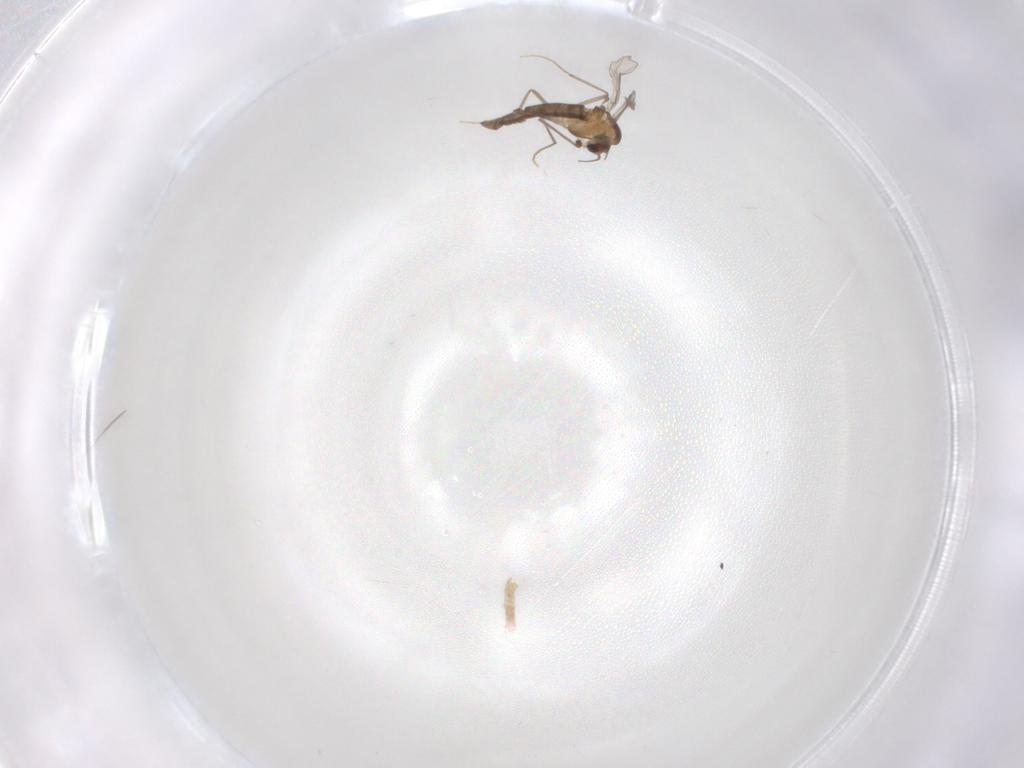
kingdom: Animalia
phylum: Arthropoda
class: Insecta
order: Diptera
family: Chironomidae
